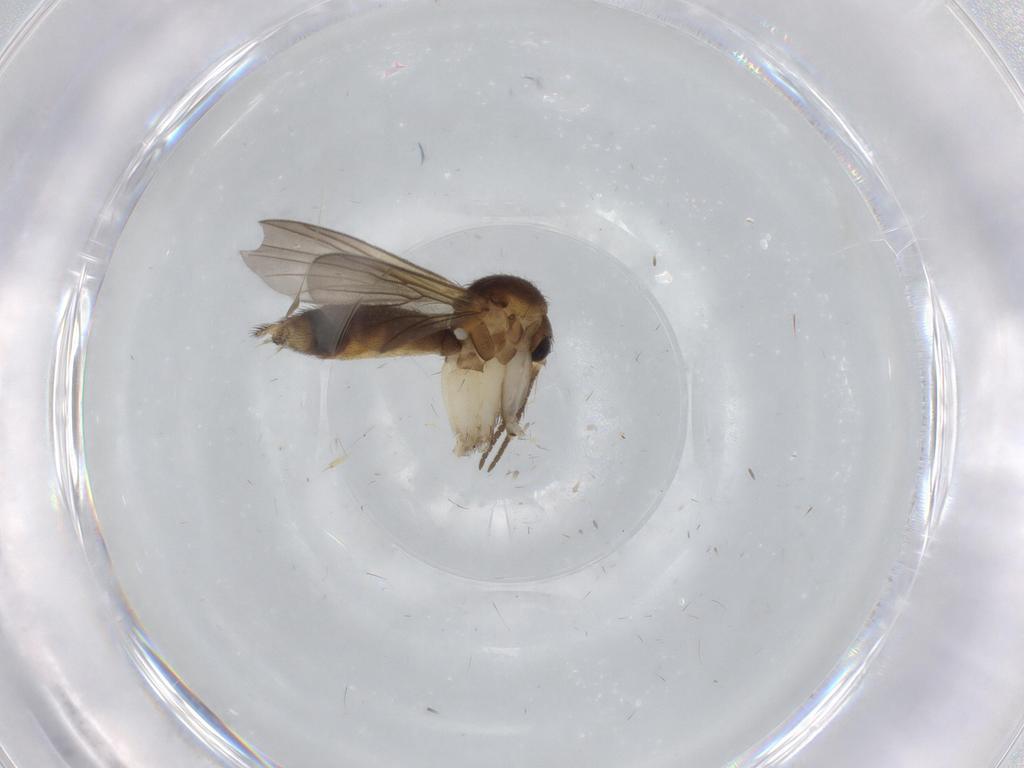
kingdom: Animalia
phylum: Arthropoda
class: Insecta
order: Diptera
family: Mycetophilidae
